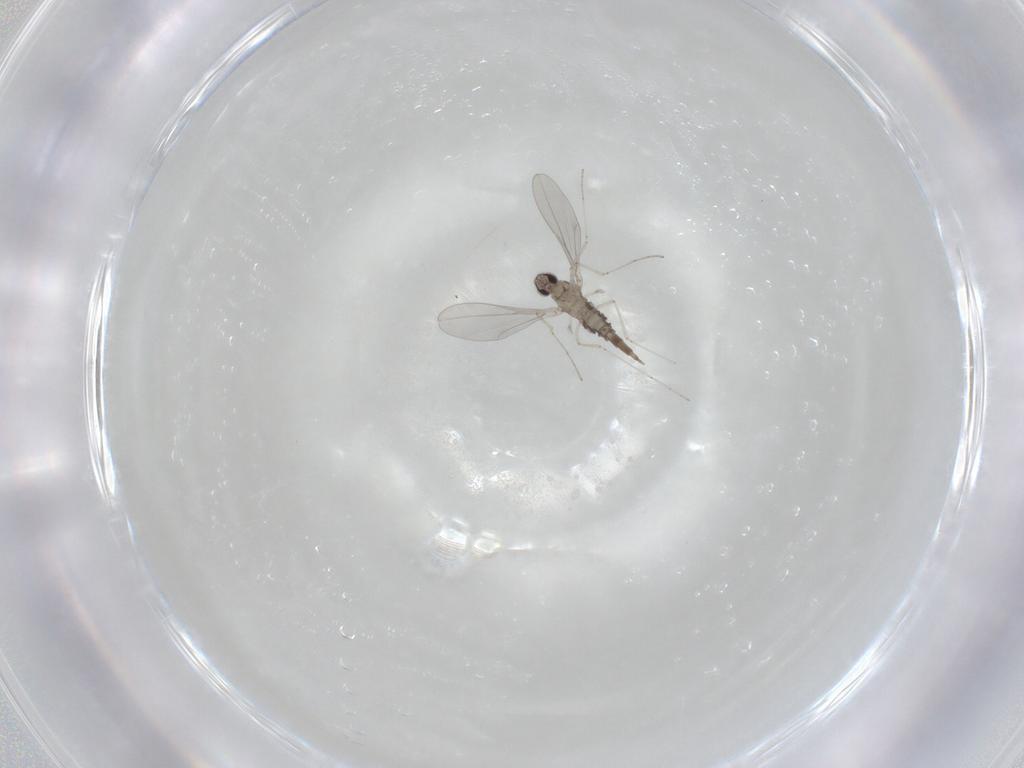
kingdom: Animalia
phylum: Arthropoda
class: Insecta
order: Diptera
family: Cecidomyiidae
